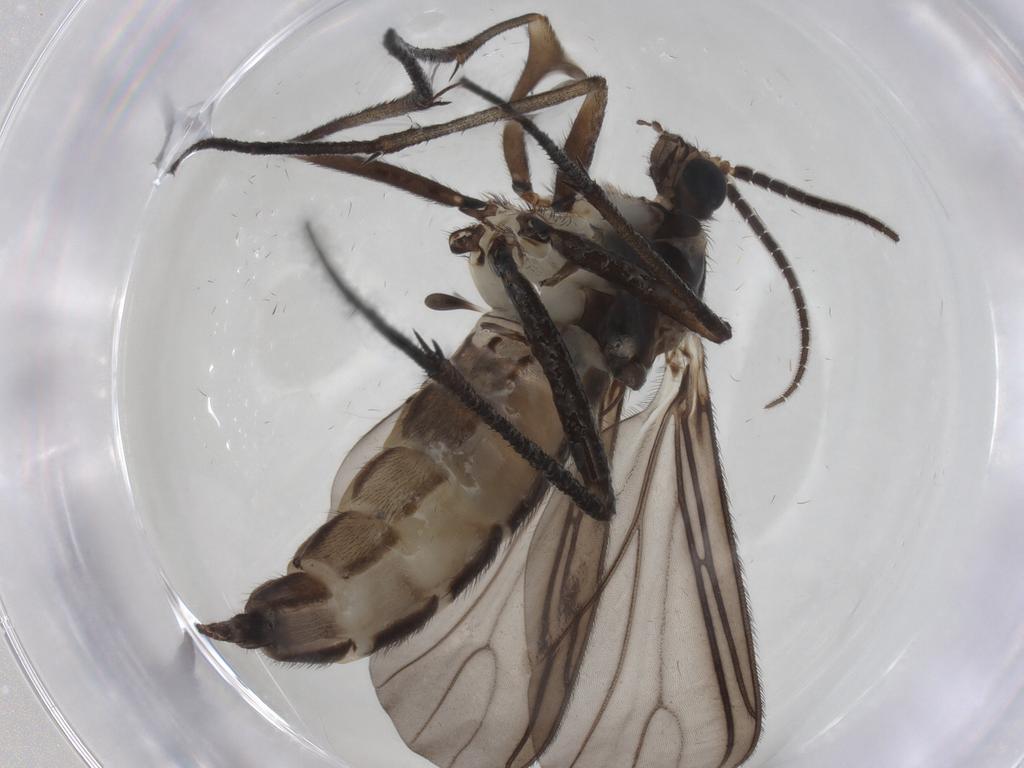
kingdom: Animalia
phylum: Arthropoda
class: Insecta
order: Diptera
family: Sciaridae
